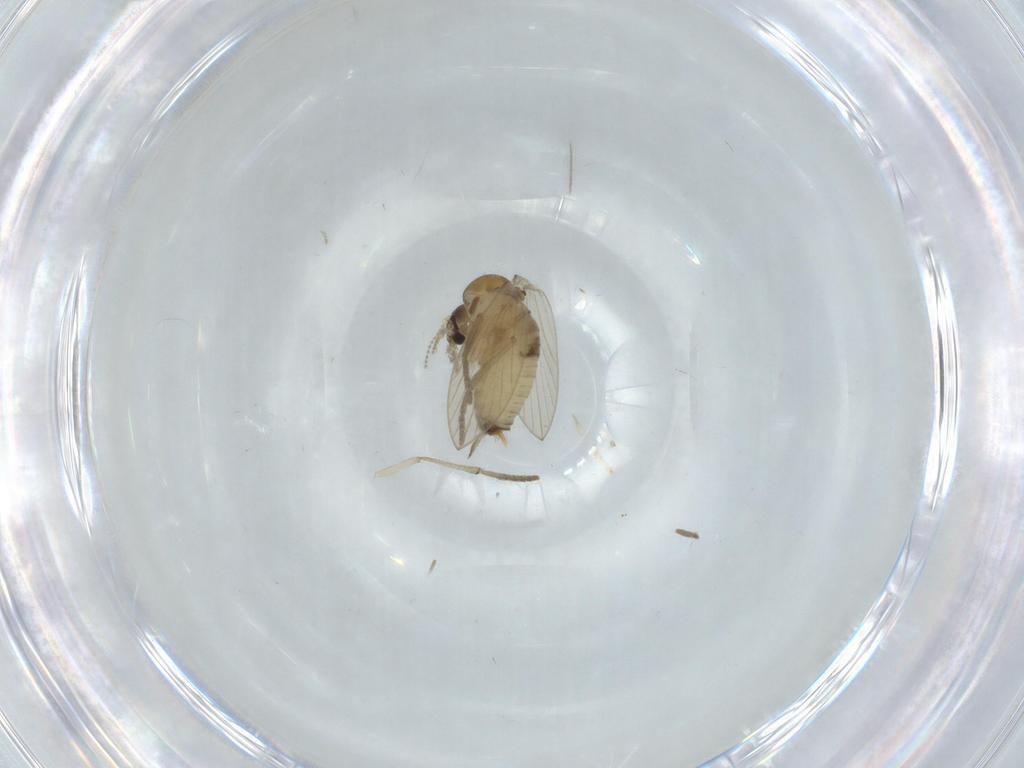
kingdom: Animalia
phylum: Arthropoda
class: Insecta
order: Diptera
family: Psychodidae
